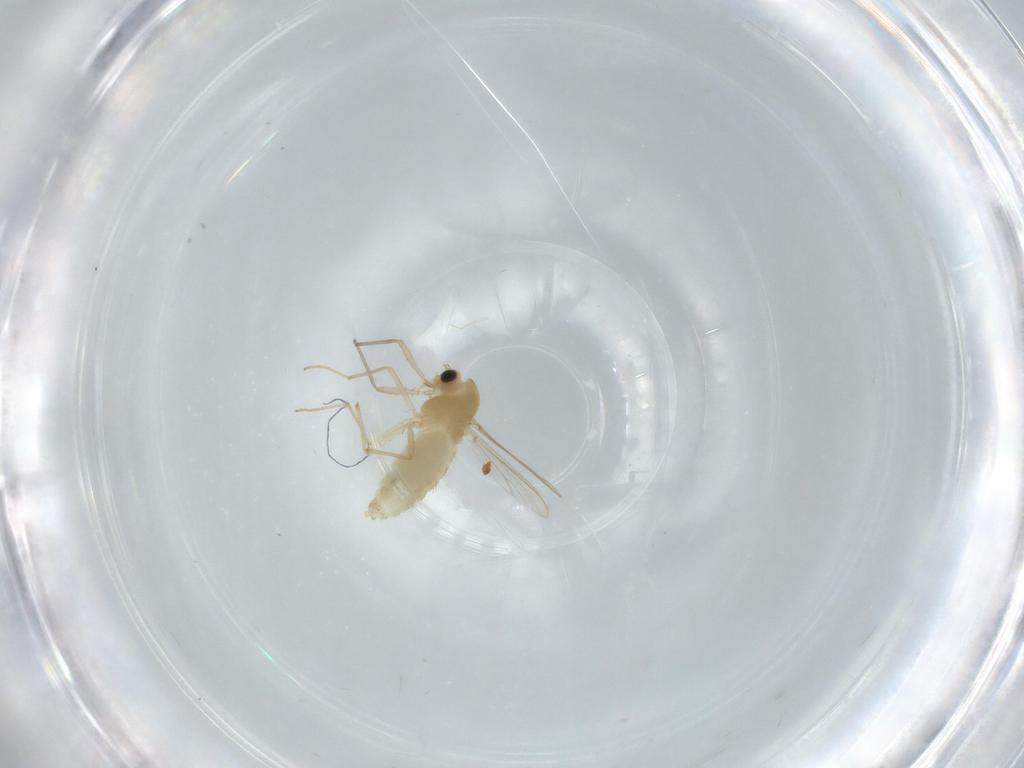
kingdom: Animalia
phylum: Arthropoda
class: Insecta
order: Diptera
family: Chironomidae
